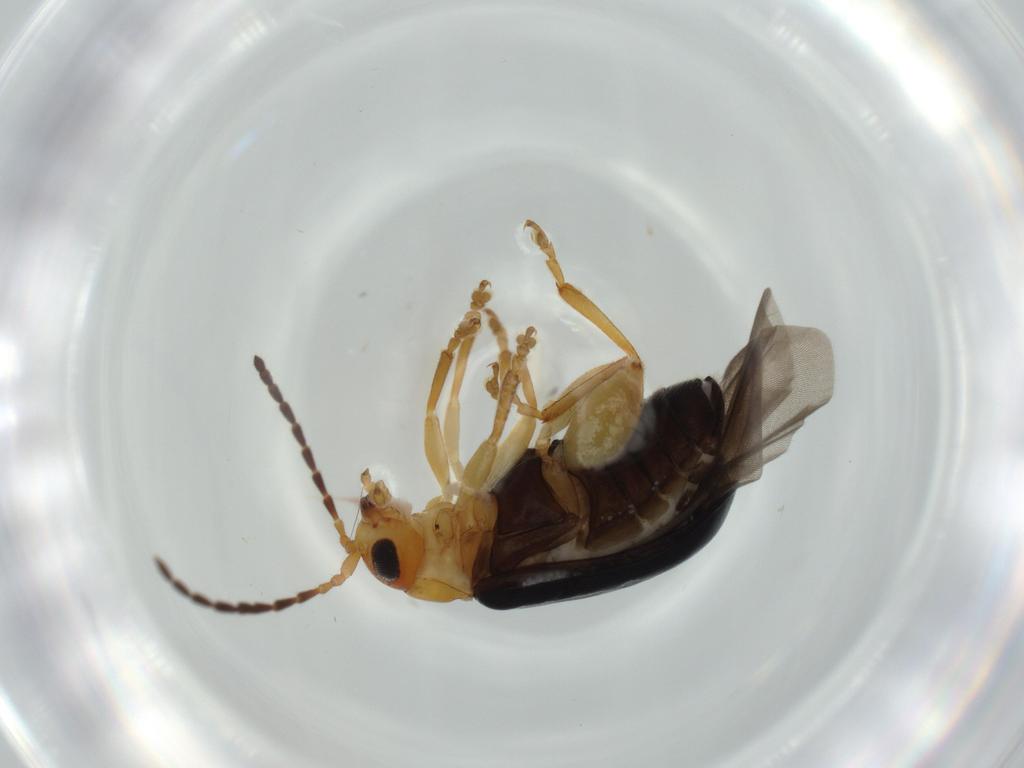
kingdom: Animalia
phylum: Arthropoda
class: Insecta
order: Coleoptera
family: Chrysomelidae
